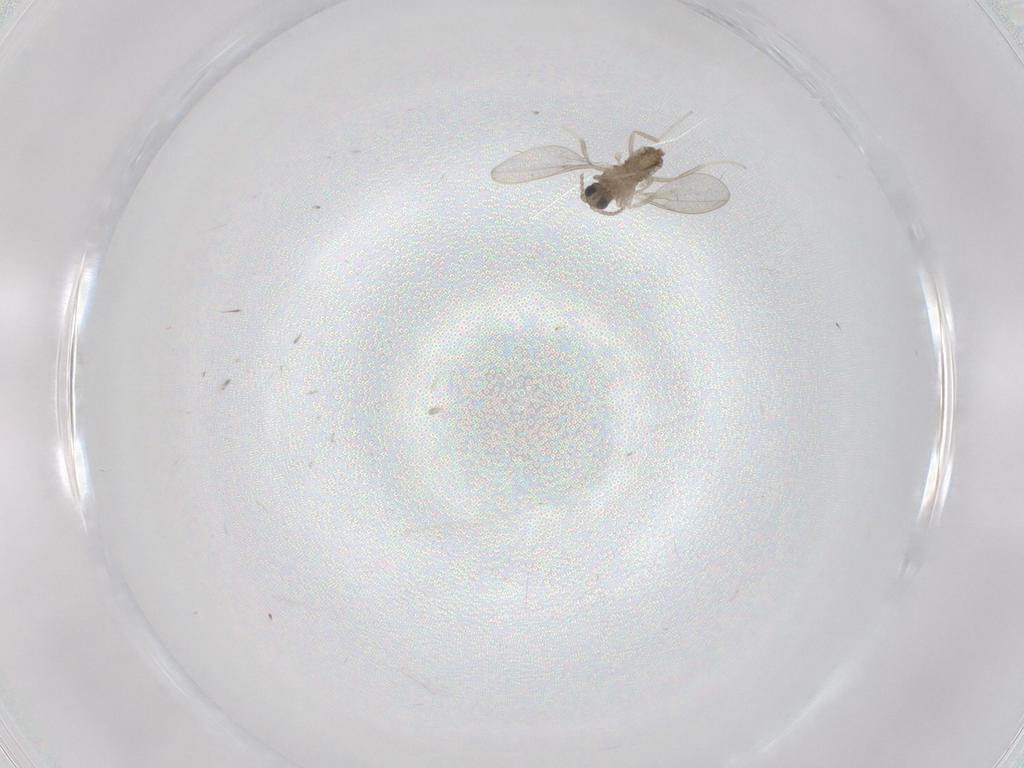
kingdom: Animalia
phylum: Arthropoda
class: Insecta
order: Diptera
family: Cecidomyiidae
